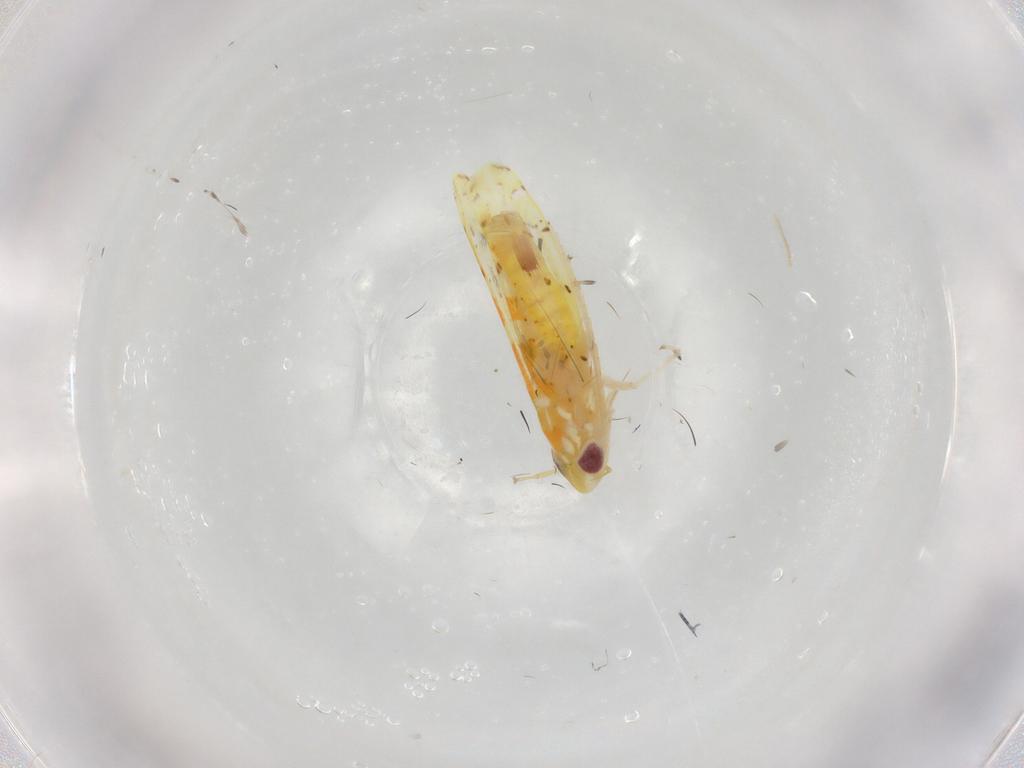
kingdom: Animalia
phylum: Arthropoda
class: Insecta
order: Hemiptera
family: Cicadellidae
